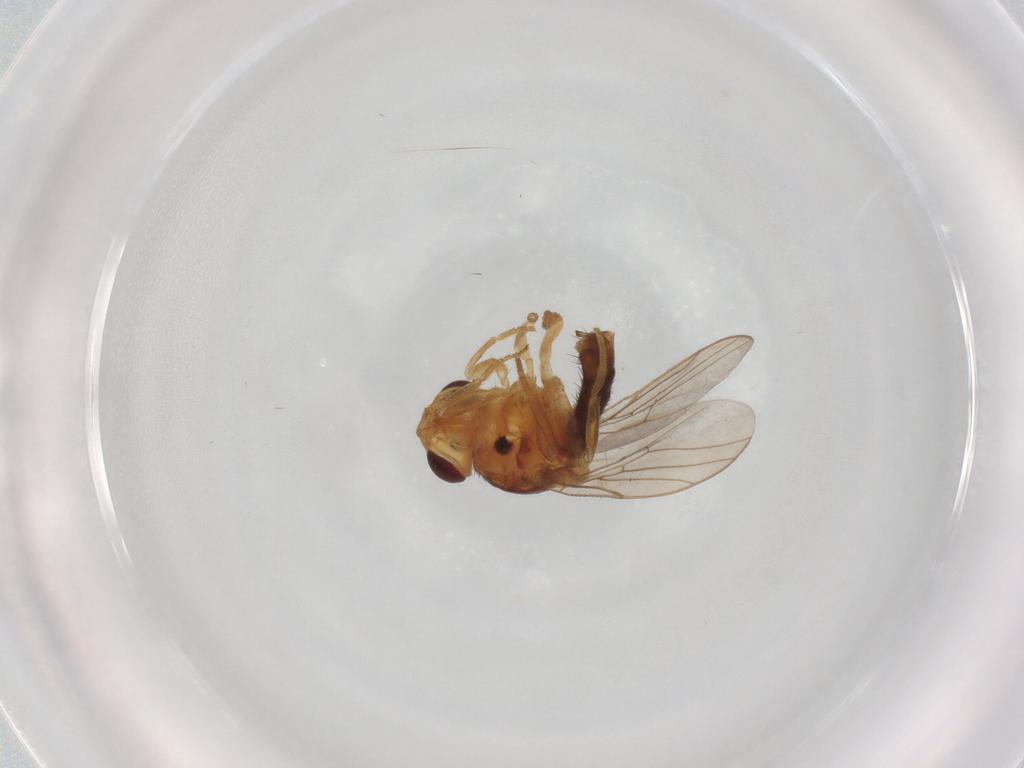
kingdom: Animalia
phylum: Arthropoda
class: Insecta
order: Diptera
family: Chloropidae
